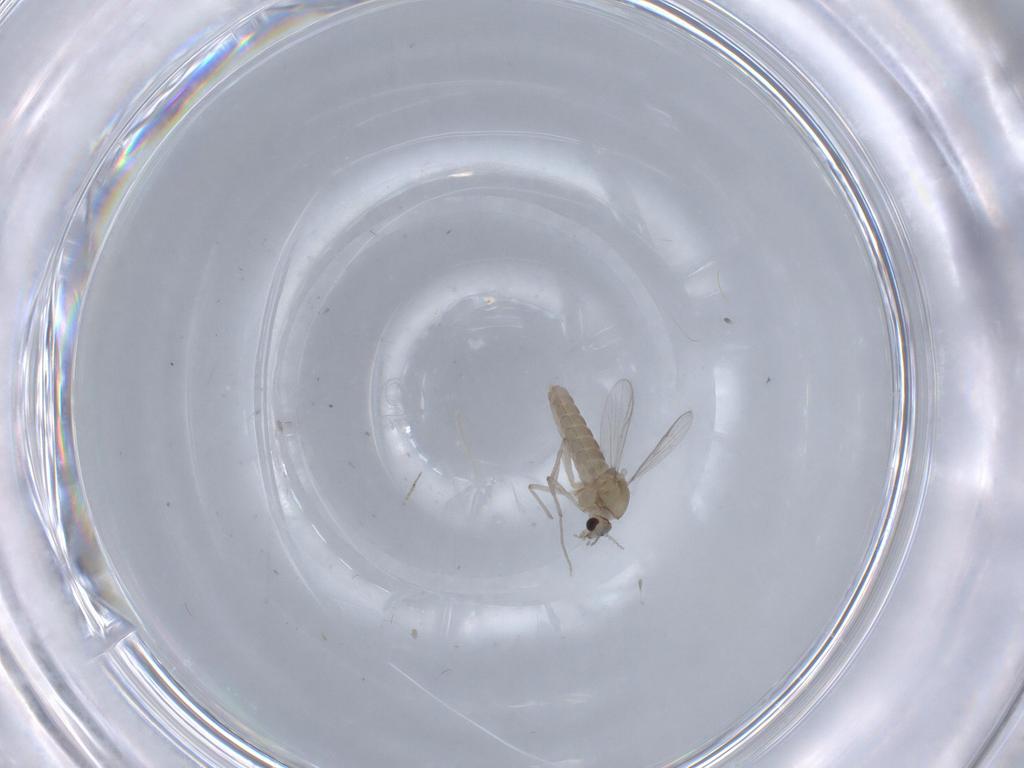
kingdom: Animalia
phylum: Arthropoda
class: Insecta
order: Diptera
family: Chironomidae
